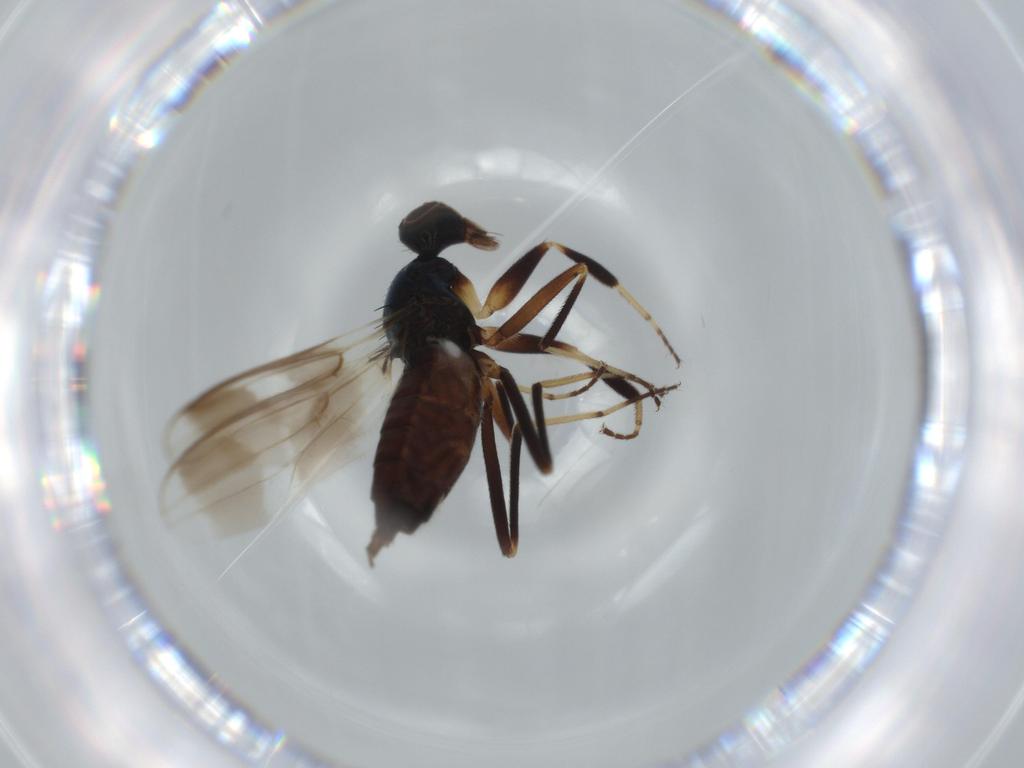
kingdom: Animalia
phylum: Arthropoda
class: Insecta
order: Diptera
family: Hybotidae
